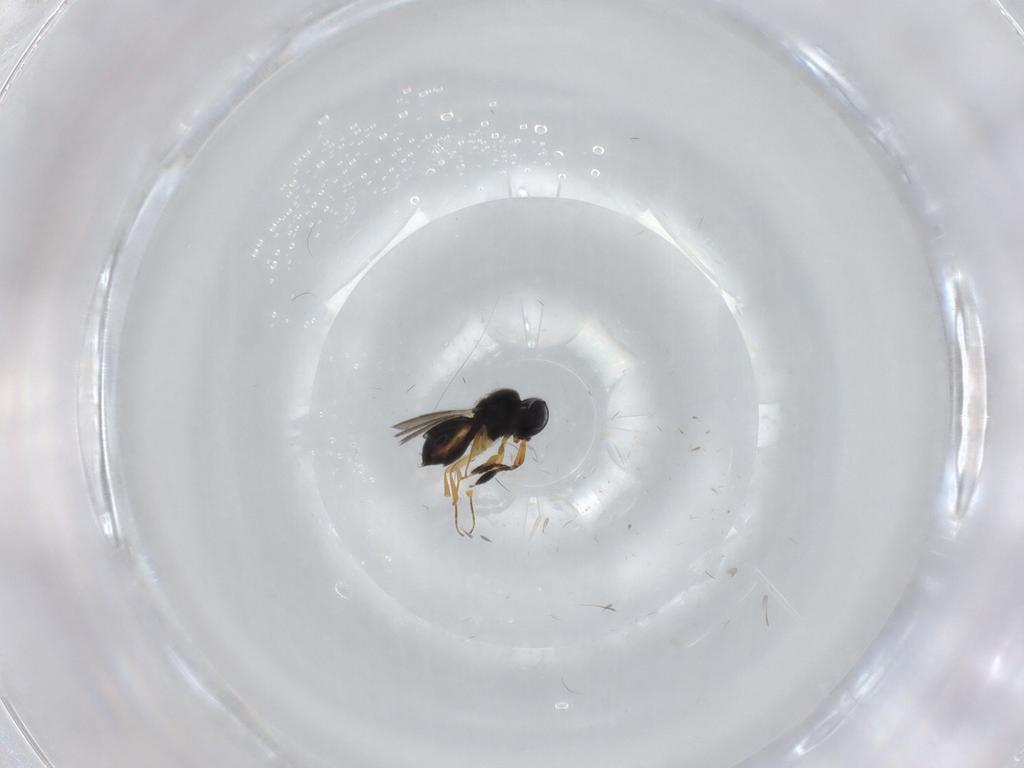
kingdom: Animalia
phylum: Arthropoda
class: Insecta
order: Hymenoptera
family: Scelionidae
